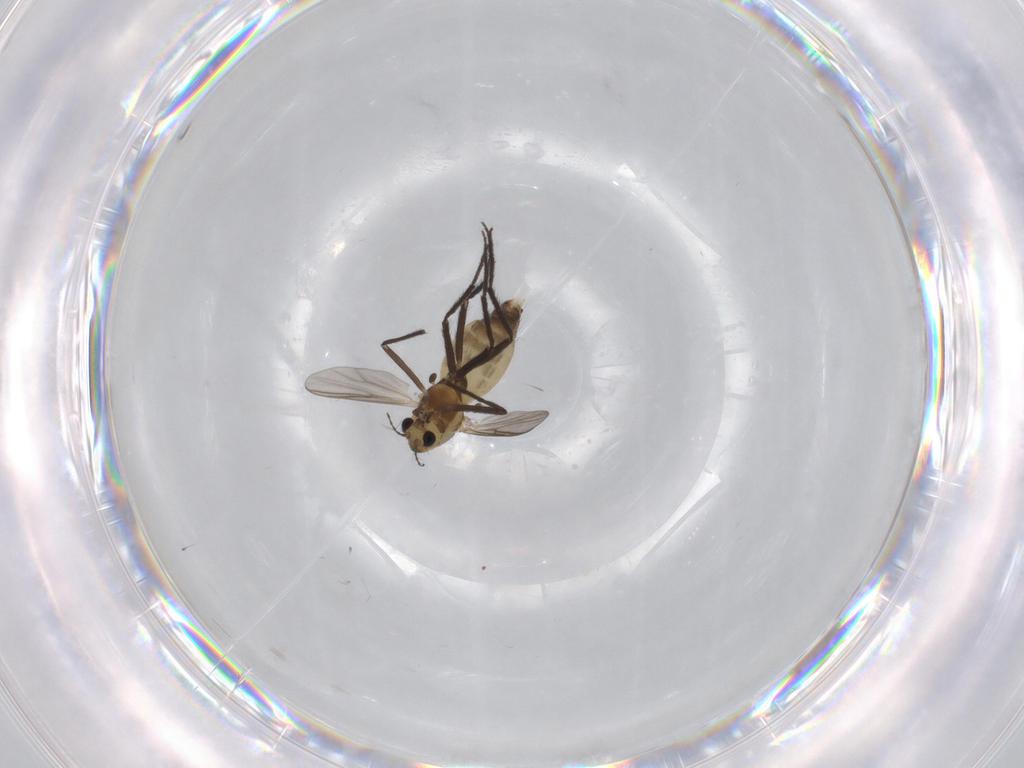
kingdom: Animalia
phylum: Arthropoda
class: Insecta
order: Diptera
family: Chironomidae
